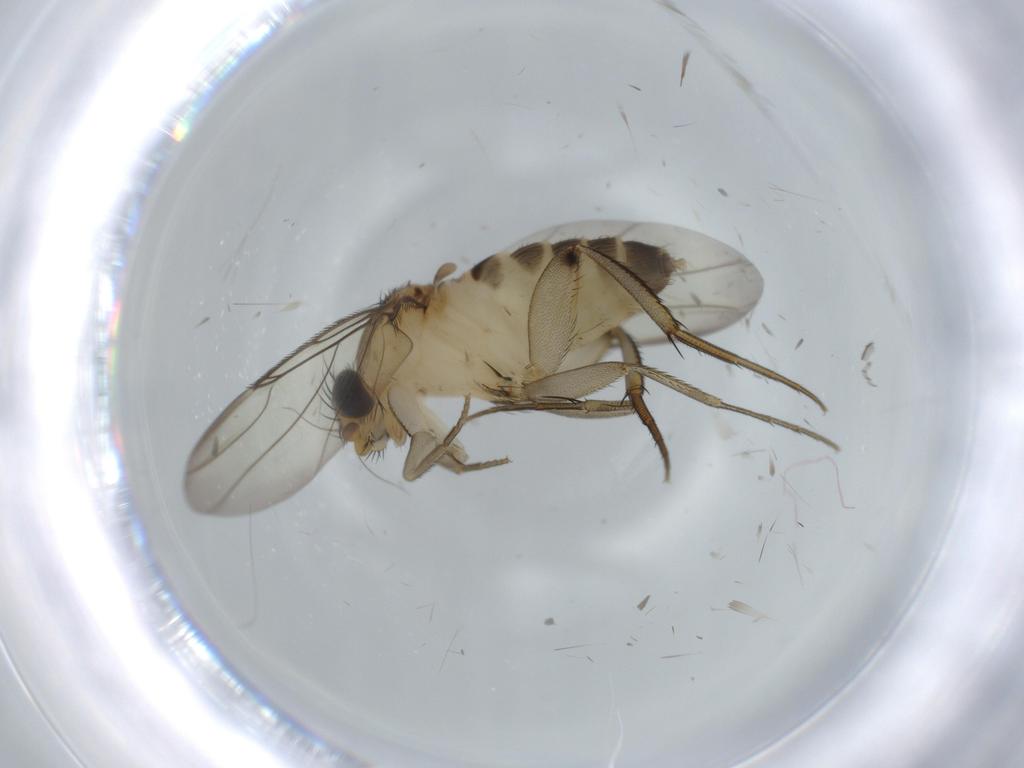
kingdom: Animalia
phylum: Arthropoda
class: Insecta
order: Diptera
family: Phoridae
